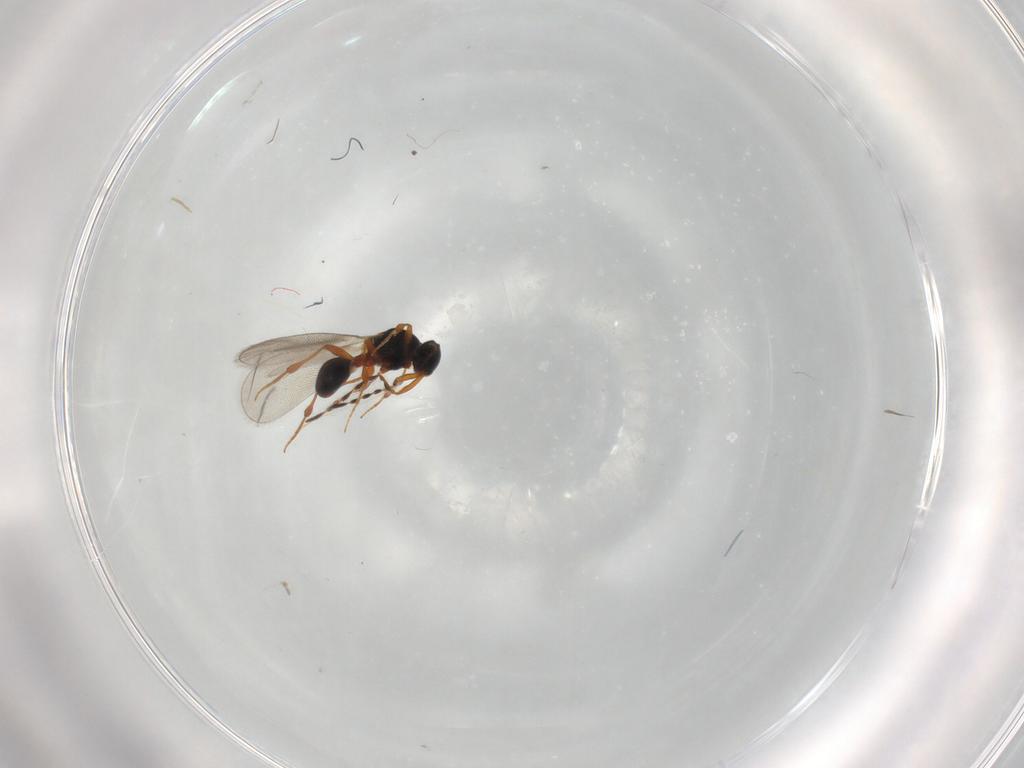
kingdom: Animalia
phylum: Arthropoda
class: Insecta
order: Hymenoptera
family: Platygastridae
